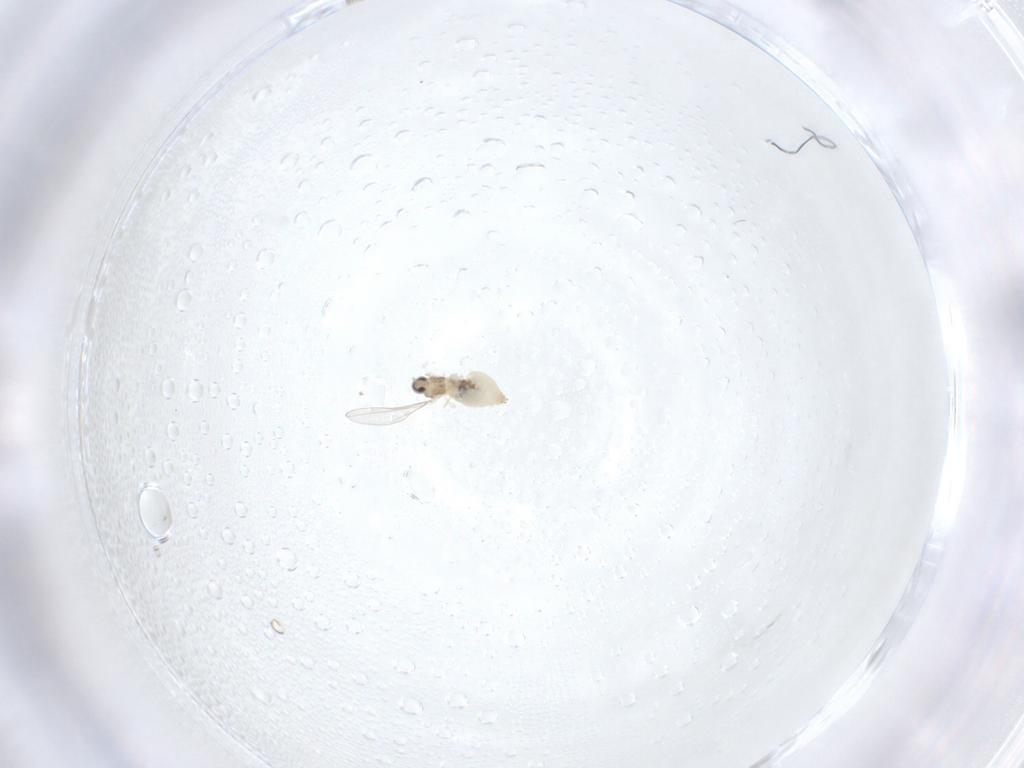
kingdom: Animalia
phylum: Arthropoda
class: Insecta
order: Diptera
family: Cecidomyiidae
